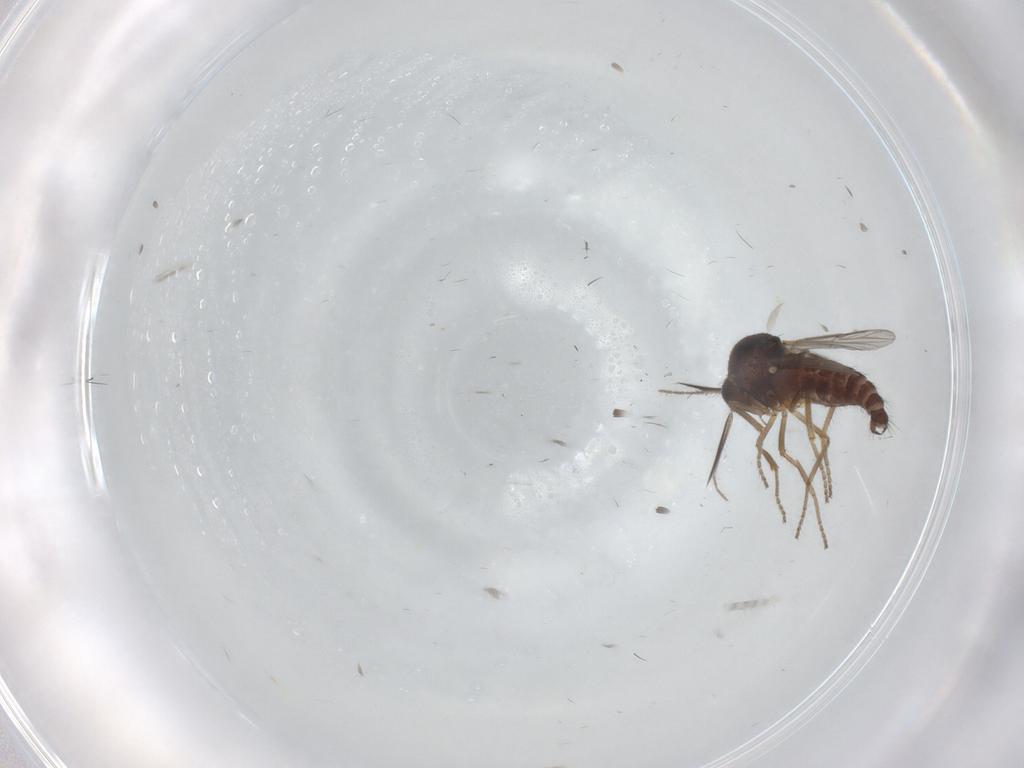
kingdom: Animalia
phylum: Arthropoda
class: Insecta
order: Diptera
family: Ceratopogonidae
